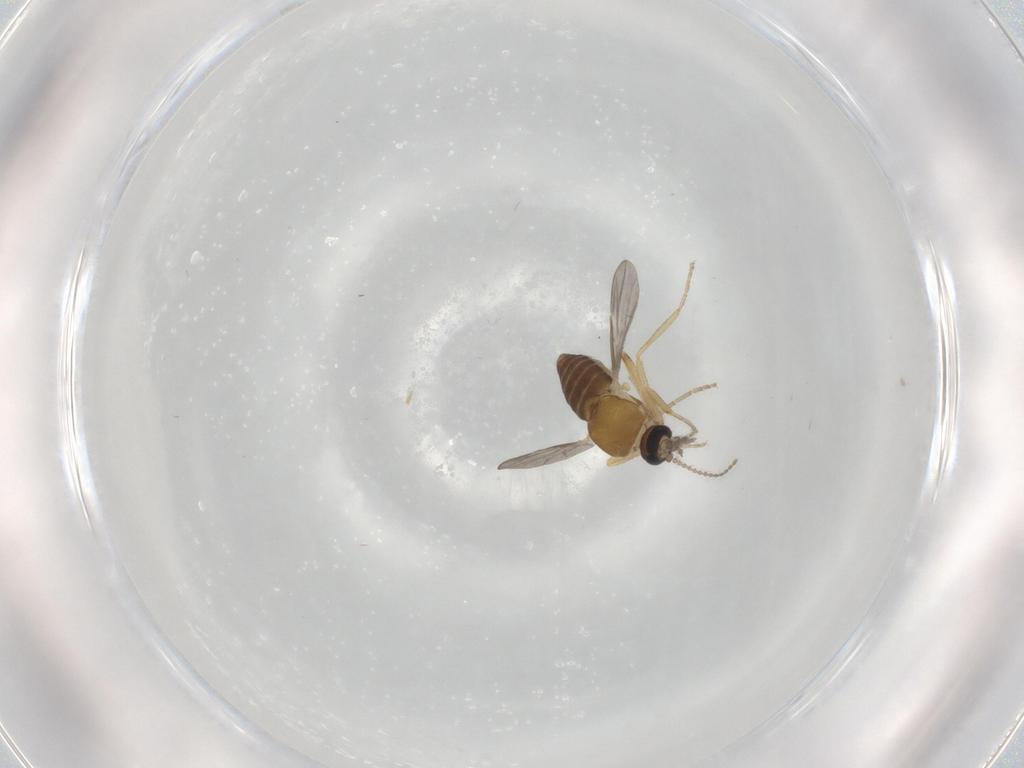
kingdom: Animalia
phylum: Arthropoda
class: Insecta
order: Diptera
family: Ceratopogonidae
